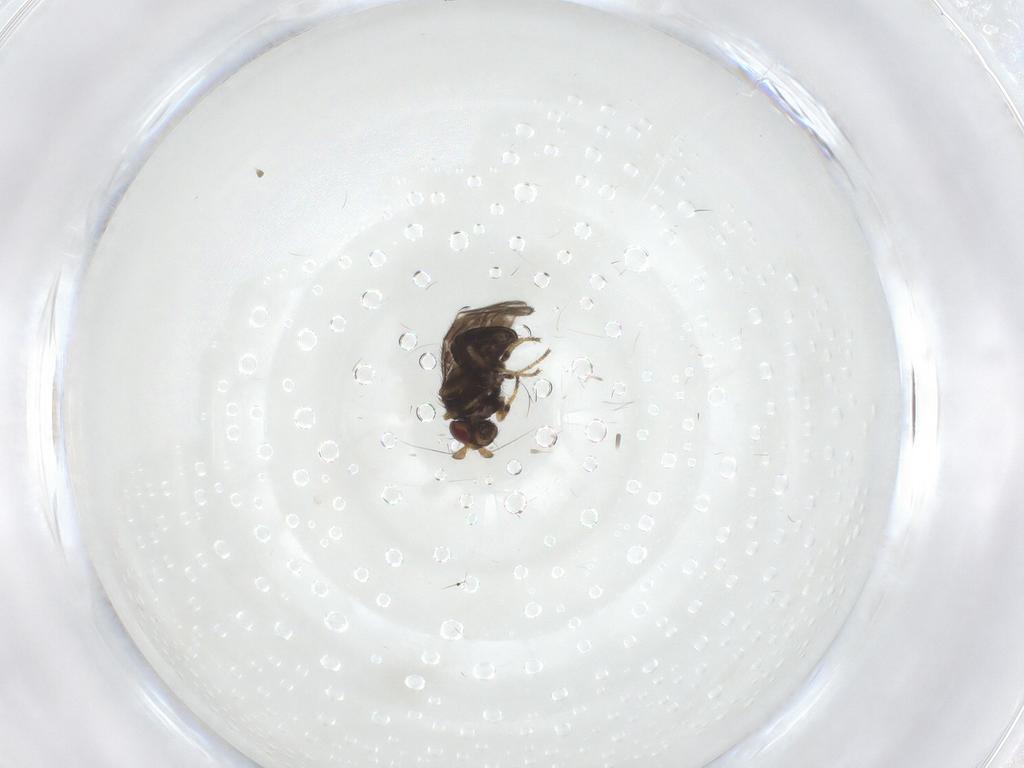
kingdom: Animalia
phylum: Arthropoda
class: Insecta
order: Diptera
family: Sphaeroceridae
